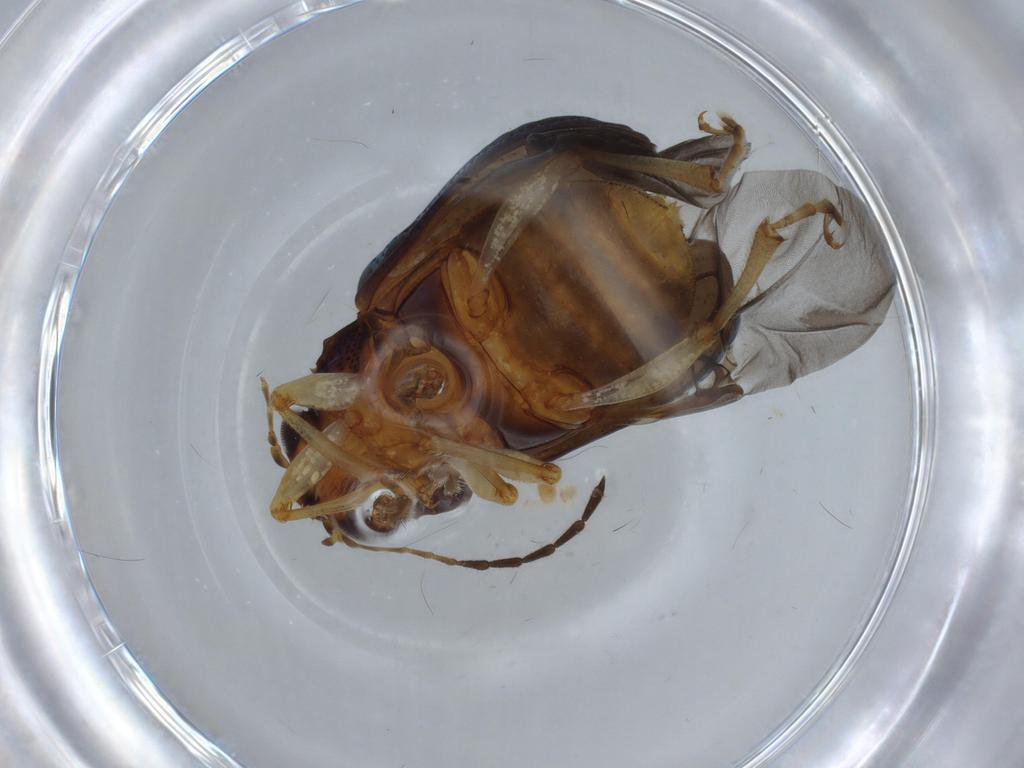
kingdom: Animalia
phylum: Arthropoda
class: Insecta
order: Coleoptera
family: Chrysomelidae
